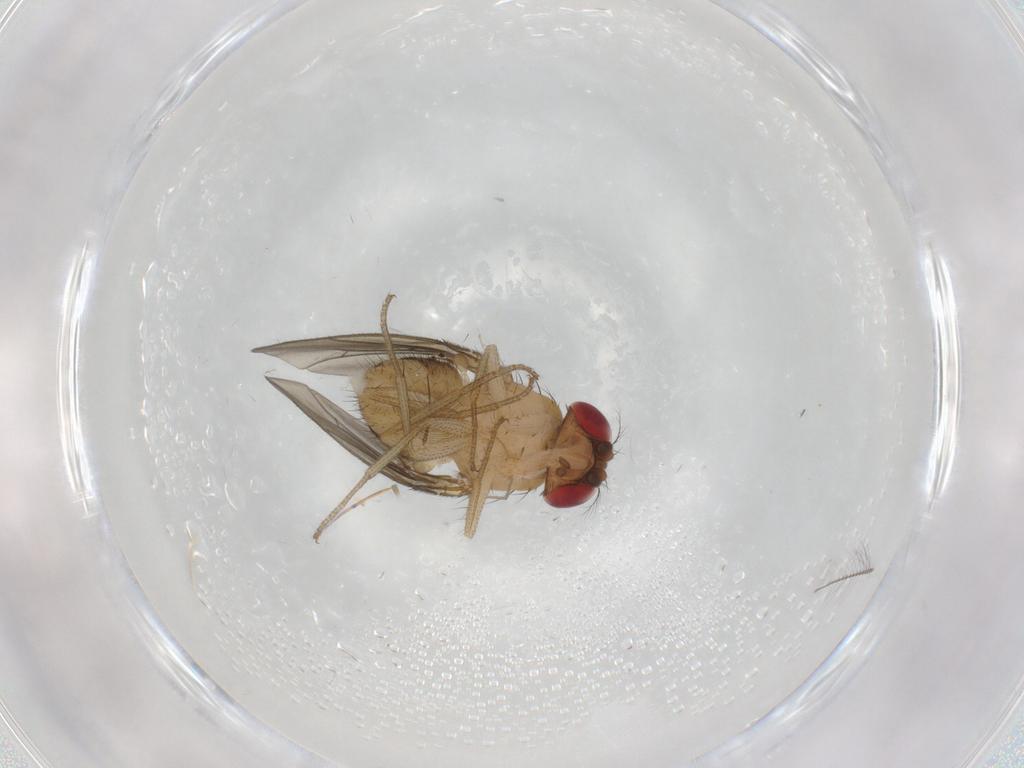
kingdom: Animalia
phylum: Arthropoda
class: Insecta
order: Diptera
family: Drosophilidae
